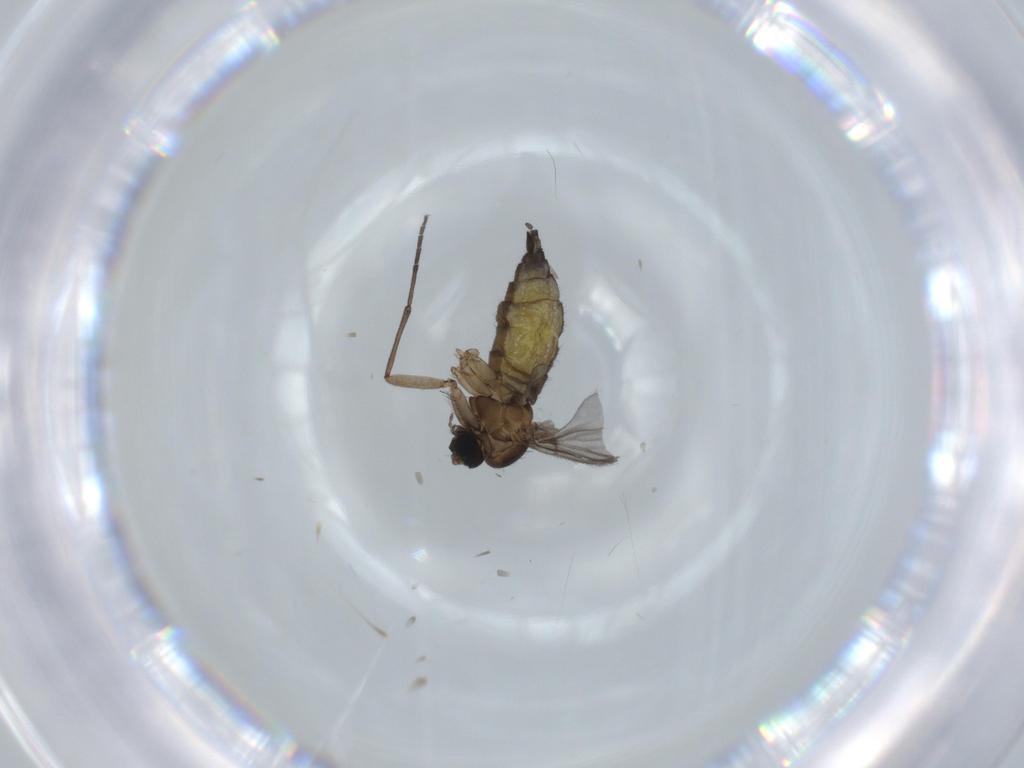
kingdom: Animalia
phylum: Arthropoda
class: Insecta
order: Diptera
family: Sciaridae
